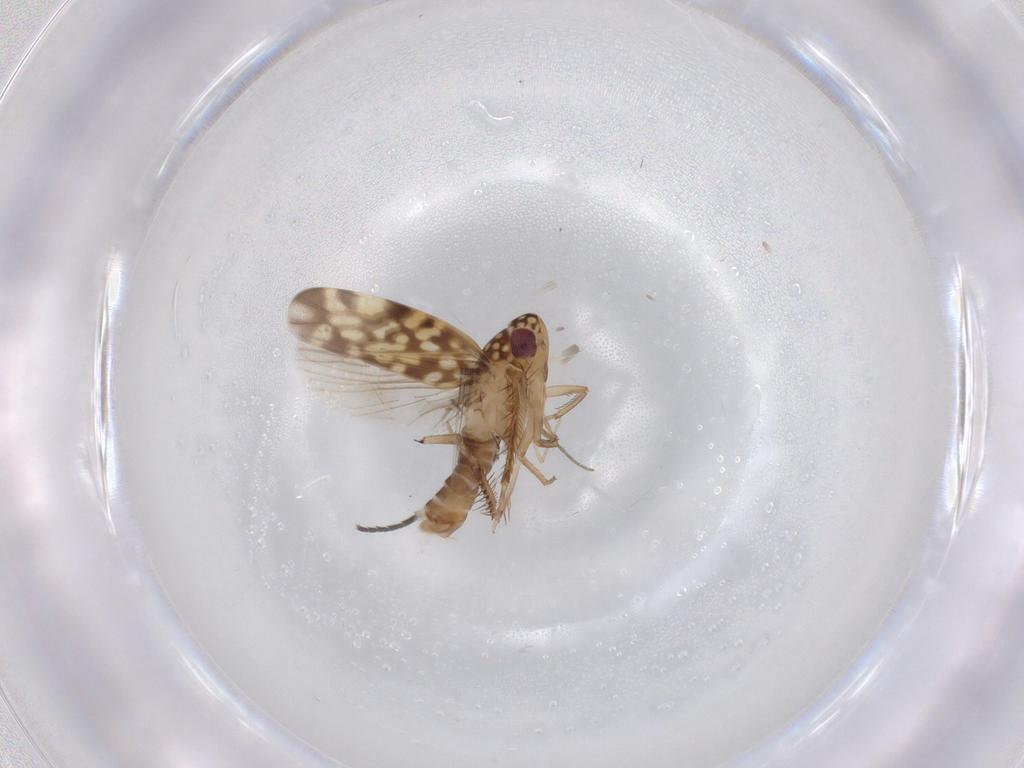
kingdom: Animalia
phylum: Arthropoda
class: Insecta
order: Hemiptera
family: Cicadellidae
